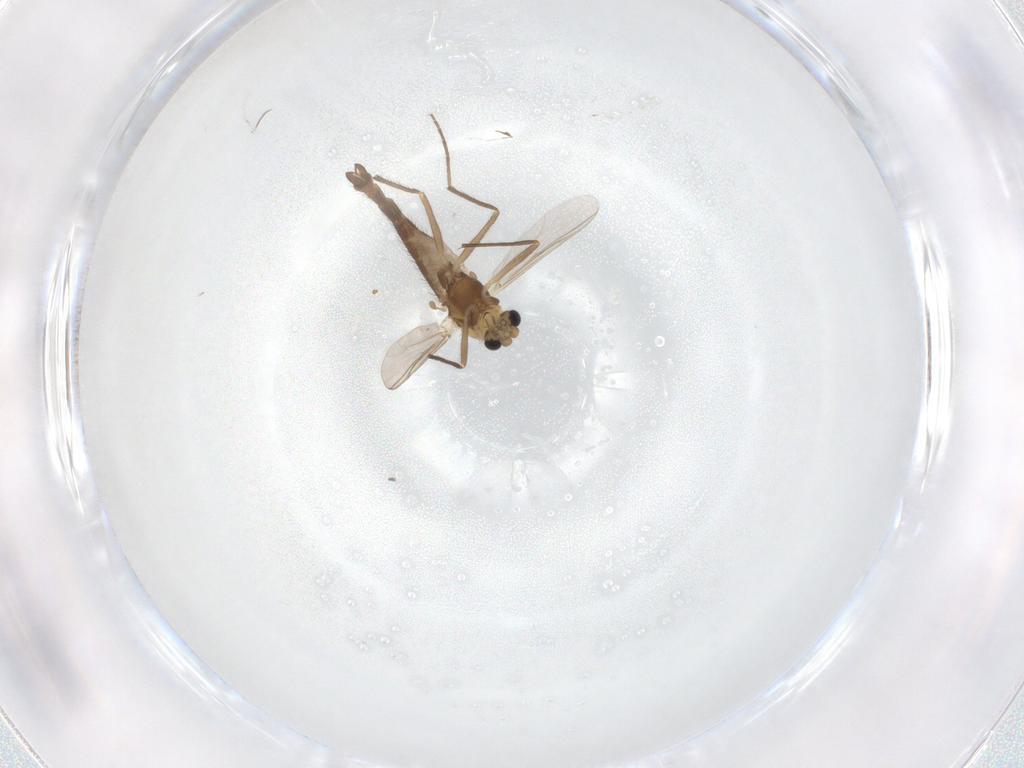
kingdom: Animalia
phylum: Arthropoda
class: Insecta
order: Diptera
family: Chironomidae
